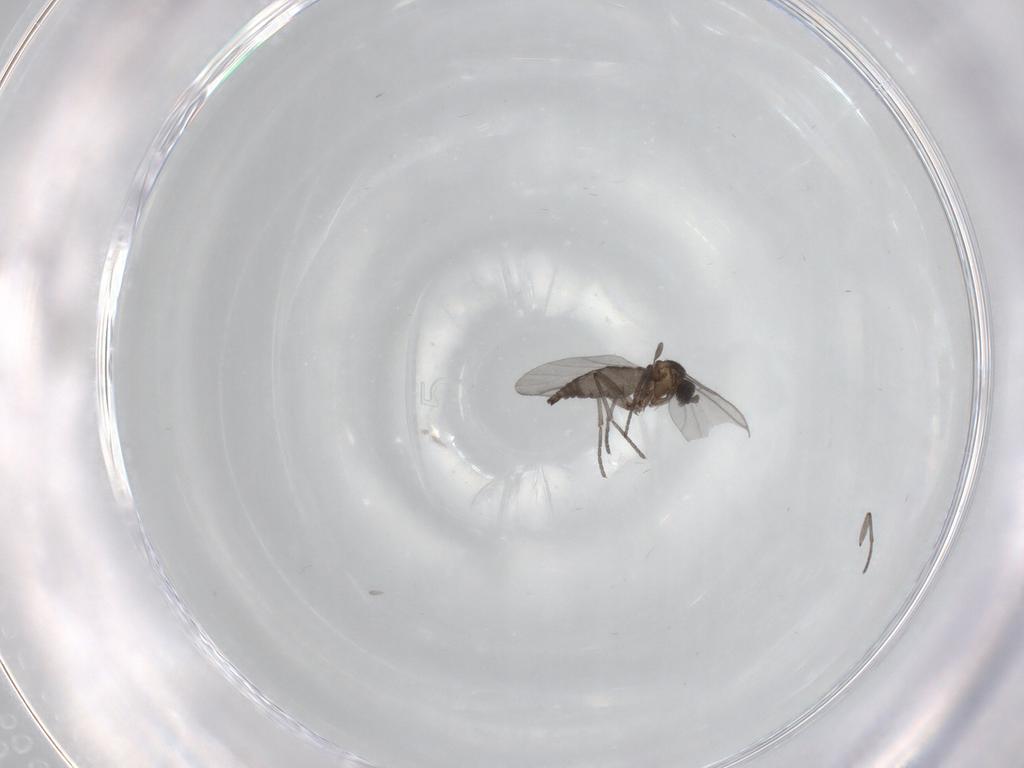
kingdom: Animalia
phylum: Arthropoda
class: Insecta
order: Diptera
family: Sciaridae
